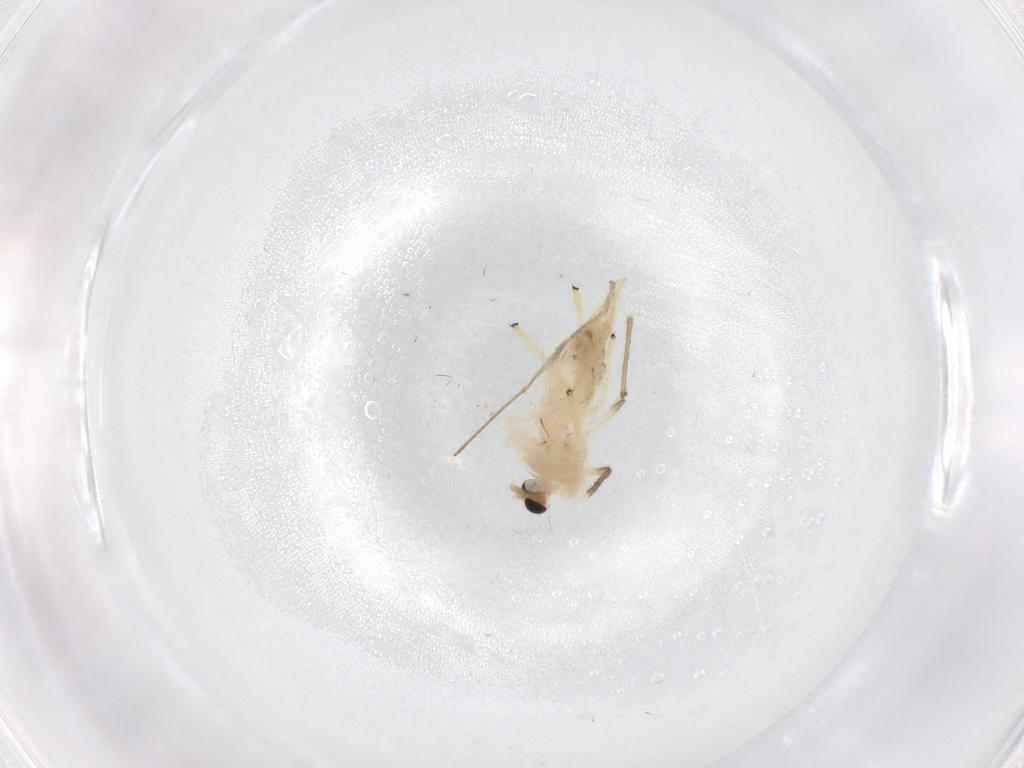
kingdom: Animalia
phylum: Arthropoda
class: Insecta
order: Diptera
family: Chironomidae
